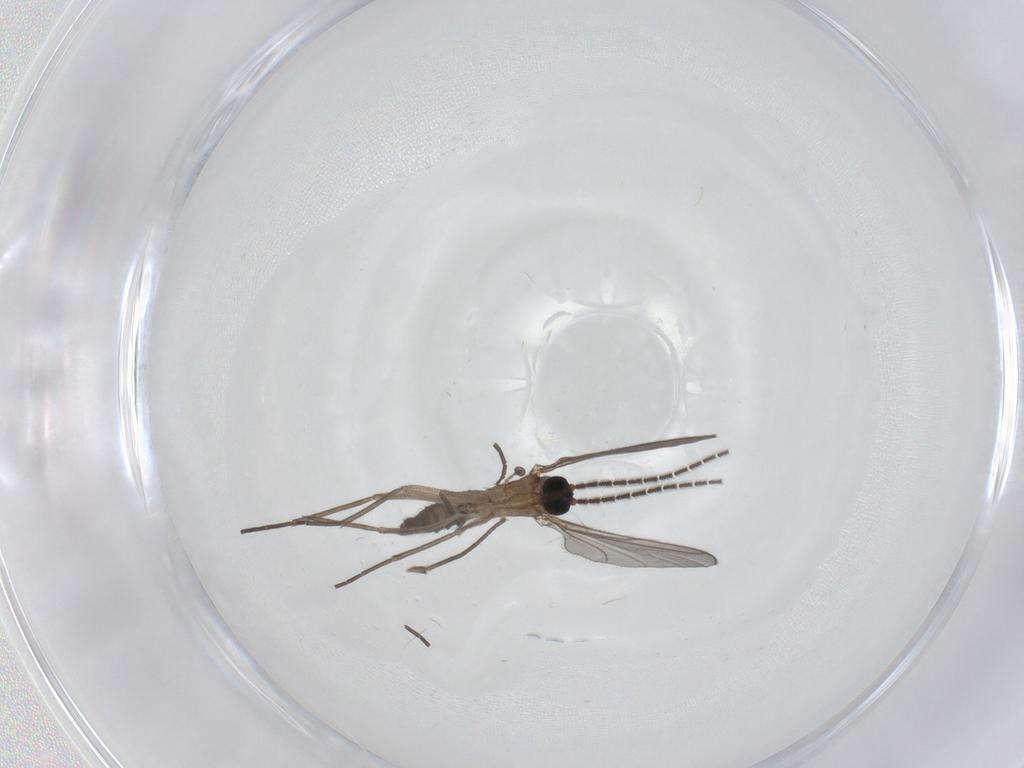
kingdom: Animalia
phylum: Arthropoda
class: Insecta
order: Diptera
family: Sciaridae
